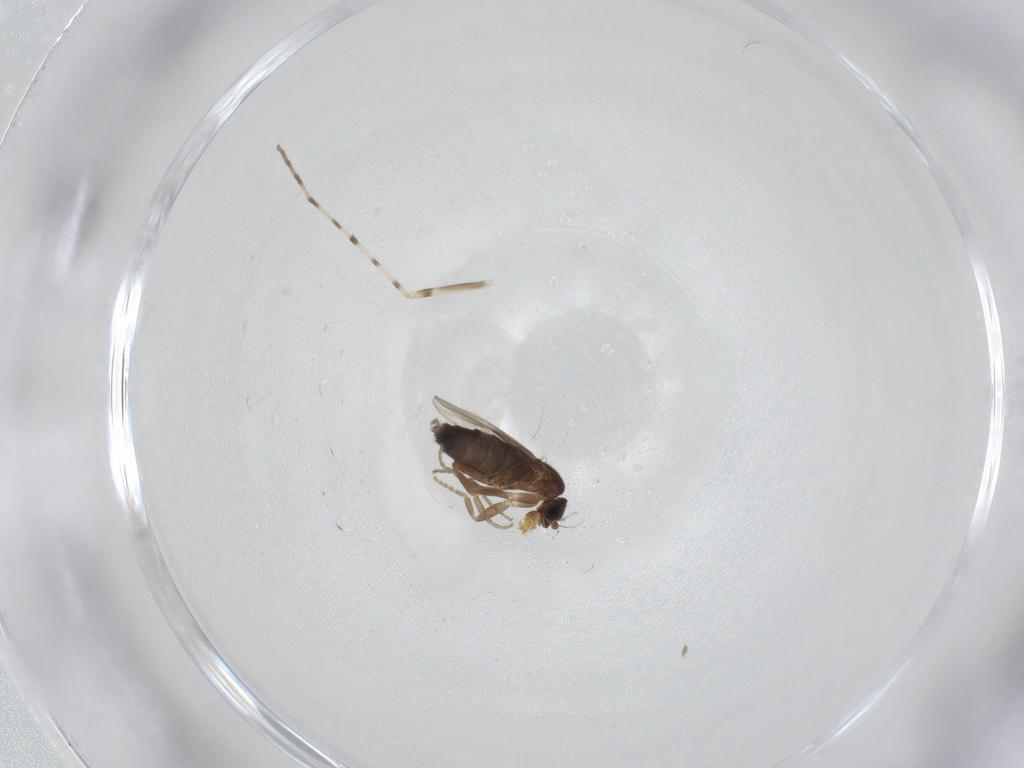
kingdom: Animalia
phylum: Arthropoda
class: Insecta
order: Diptera
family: Phoridae
